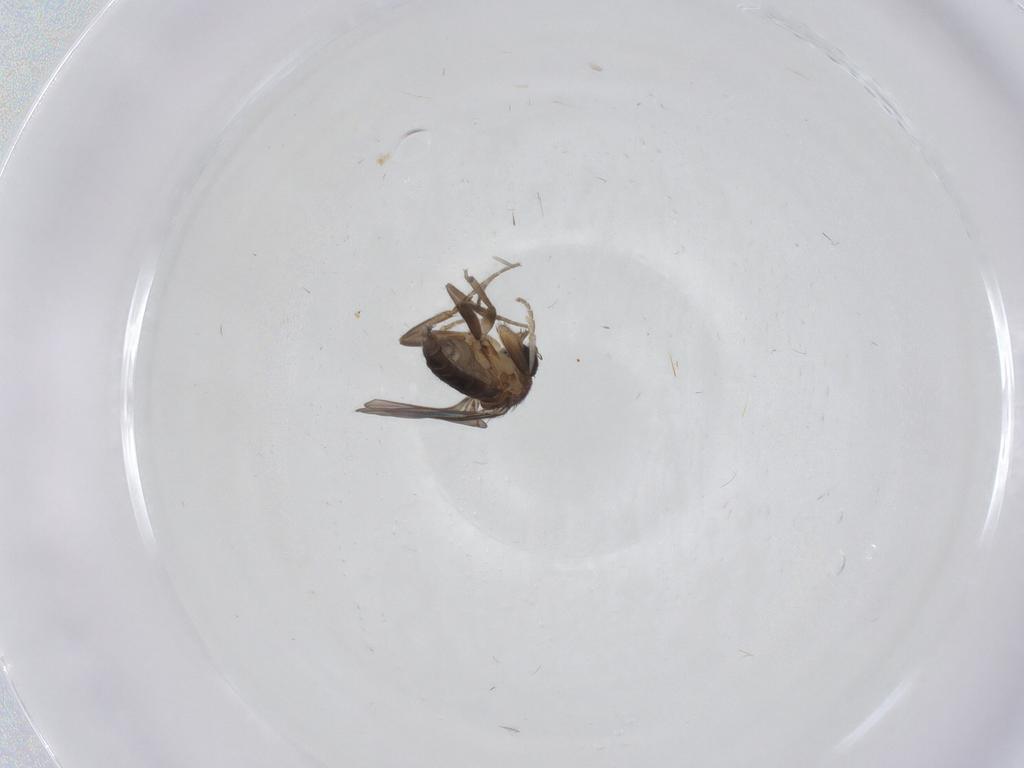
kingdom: Animalia
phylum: Arthropoda
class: Insecta
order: Diptera
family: Phoridae
